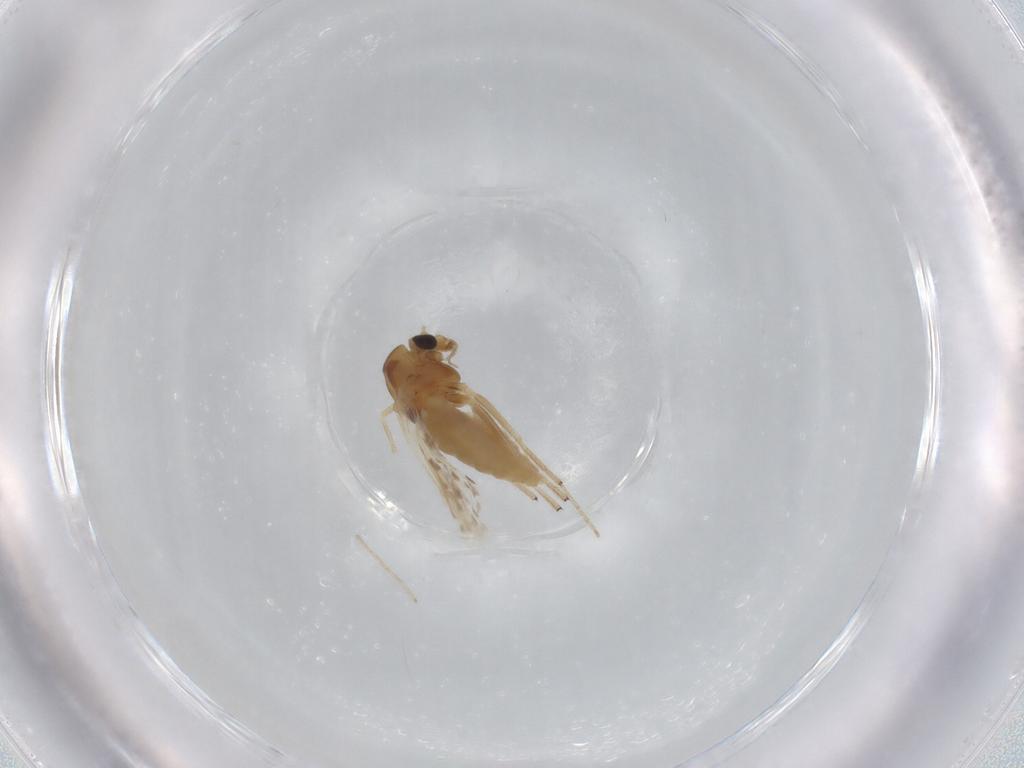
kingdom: Animalia
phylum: Arthropoda
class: Insecta
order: Diptera
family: Chironomidae
